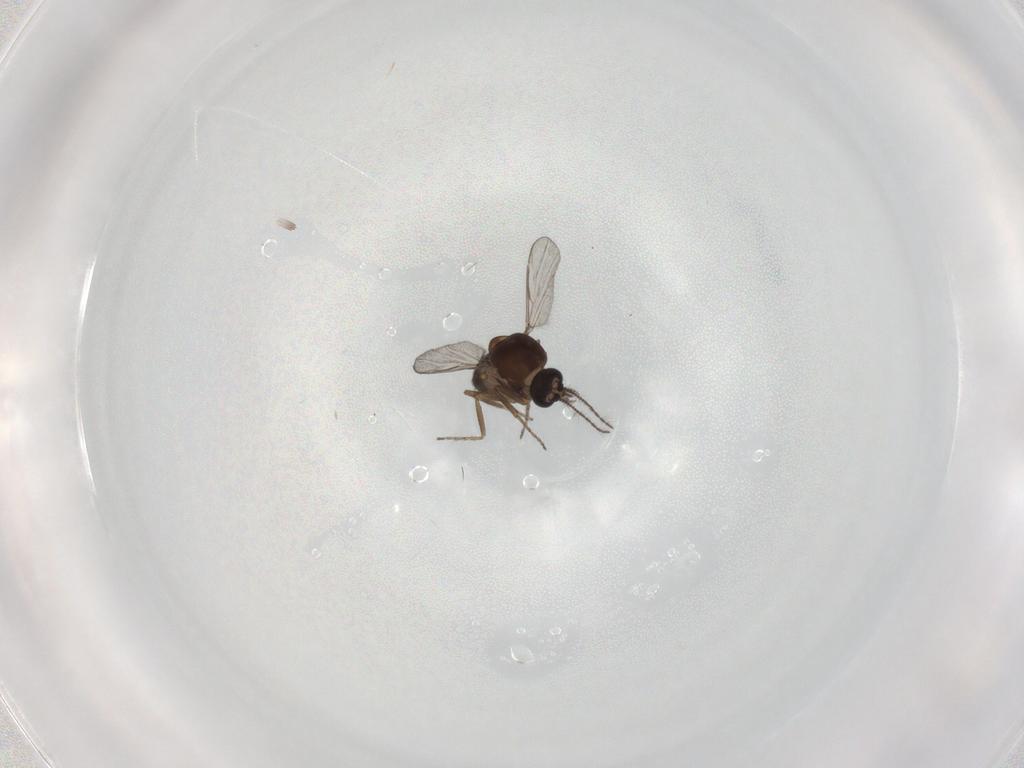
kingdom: Animalia
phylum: Arthropoda
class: Insecta
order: Diptera
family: Ceratopogonidae
